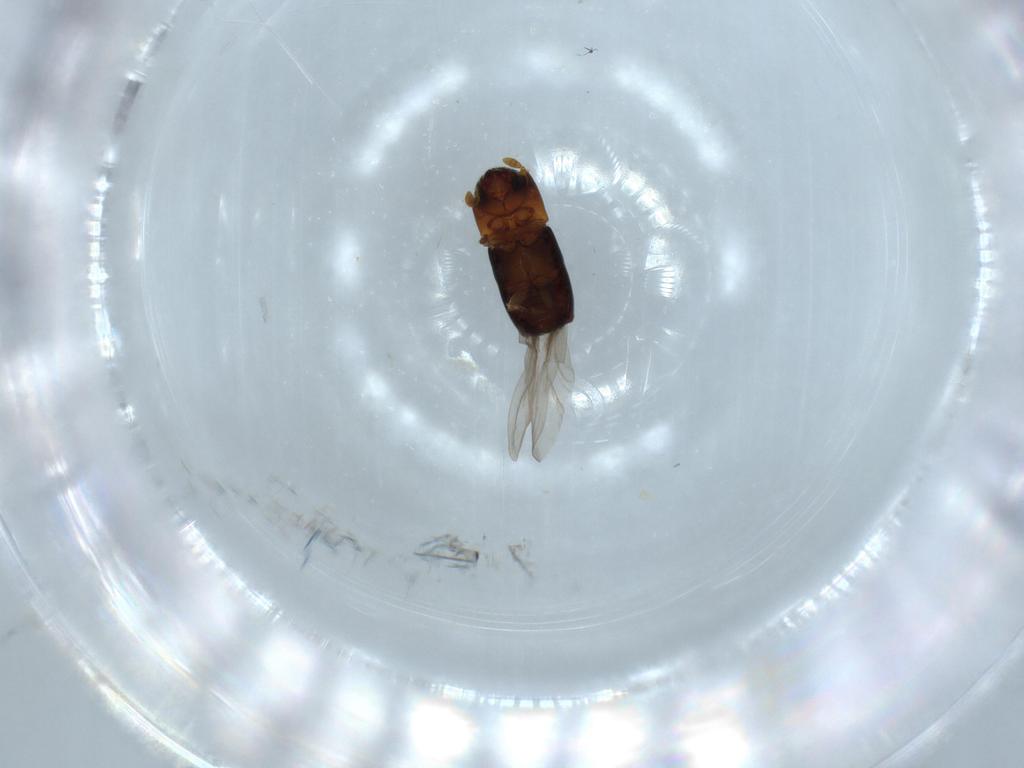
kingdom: Animalia
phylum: Arthropoda
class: Insecta
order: Coleoptera
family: Curculionidae
